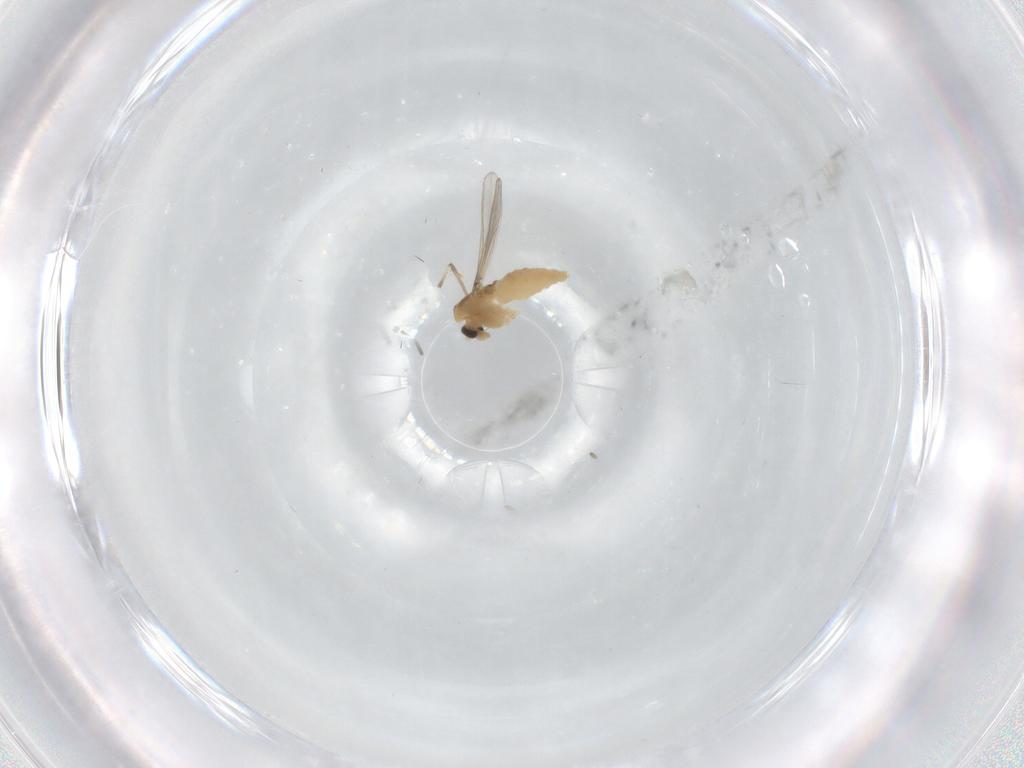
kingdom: Animalia
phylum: Arthropoda
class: Insecta
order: Diptera
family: Chironomidae
